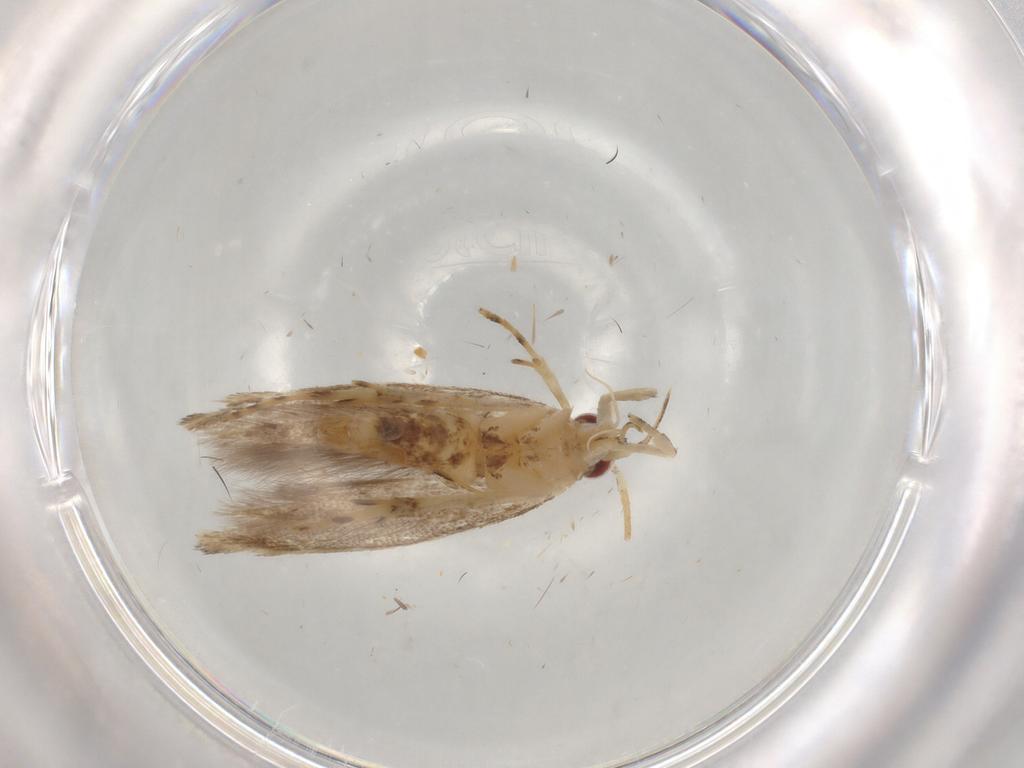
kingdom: Animalia
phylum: Arthropoda
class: Insecta
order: Lepidoptera
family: Erebidae
